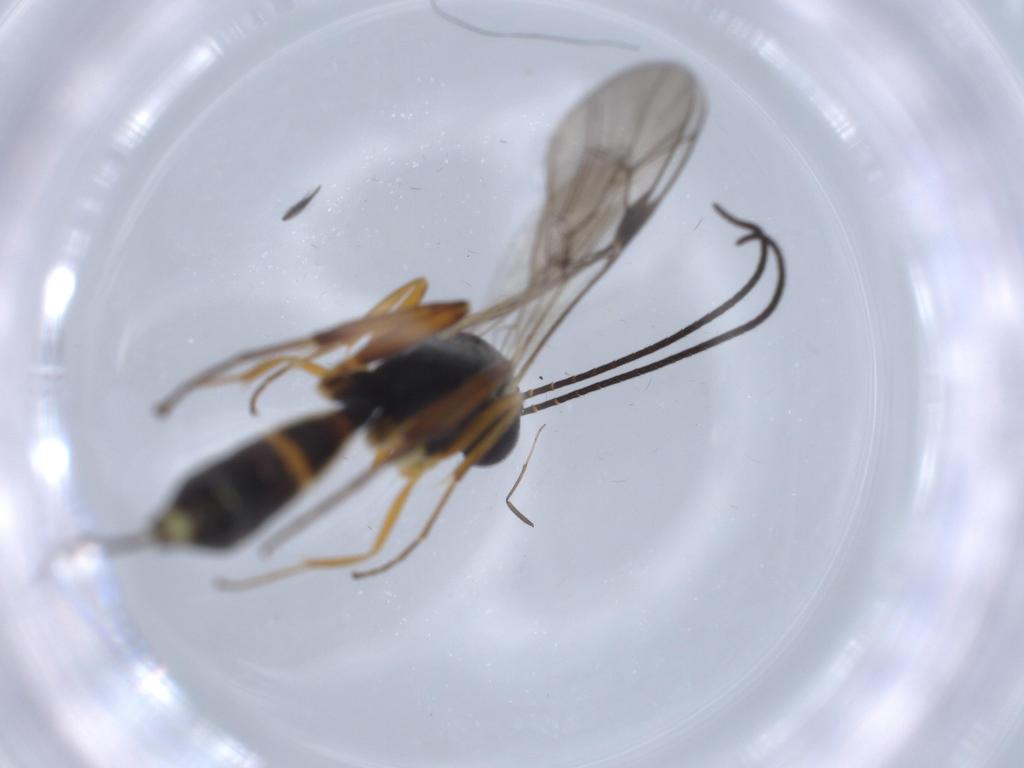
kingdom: Animalia
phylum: Arthropoda
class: Insecta
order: Hymenoptera
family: Ichneumonidae
